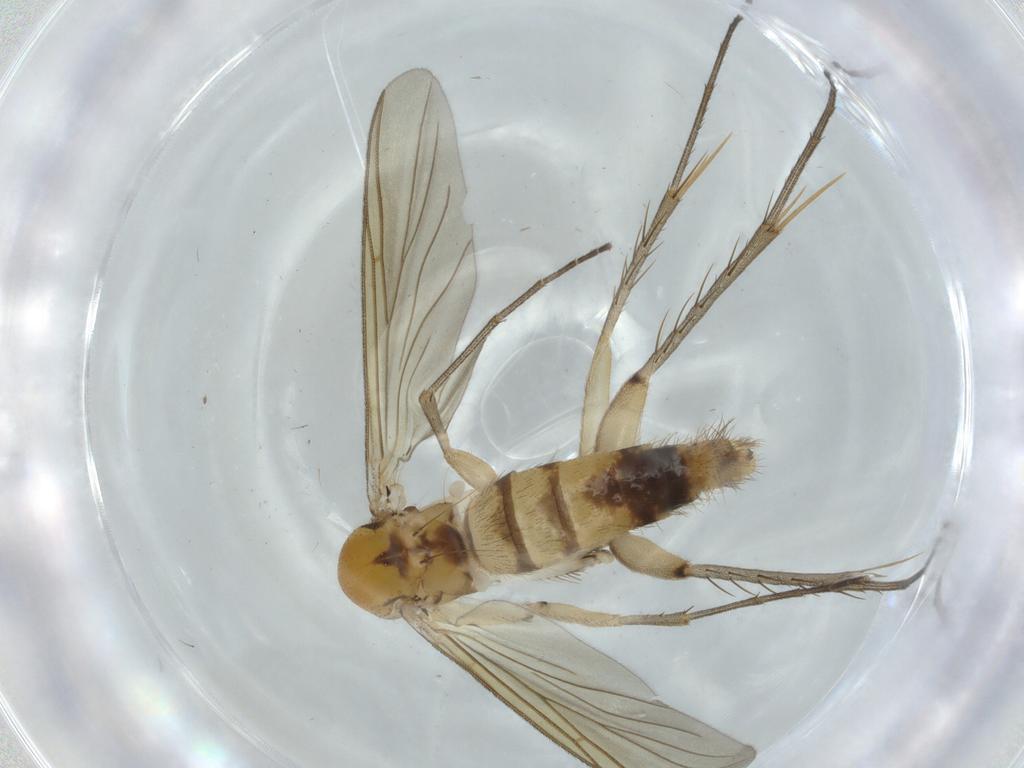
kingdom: Animalia
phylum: Arthropoda
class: Insecta
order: Diptera
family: Mycetophilidae
